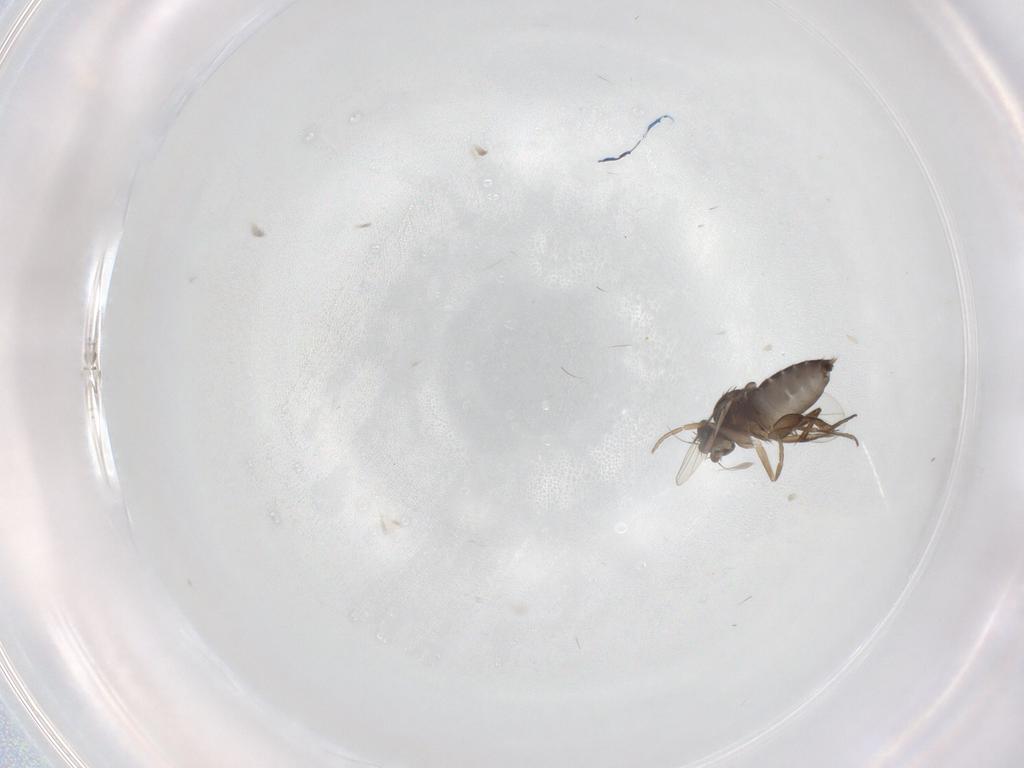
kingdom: Animalia
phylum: Arthropoda
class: Insecta
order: Diptera
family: Phoridae
